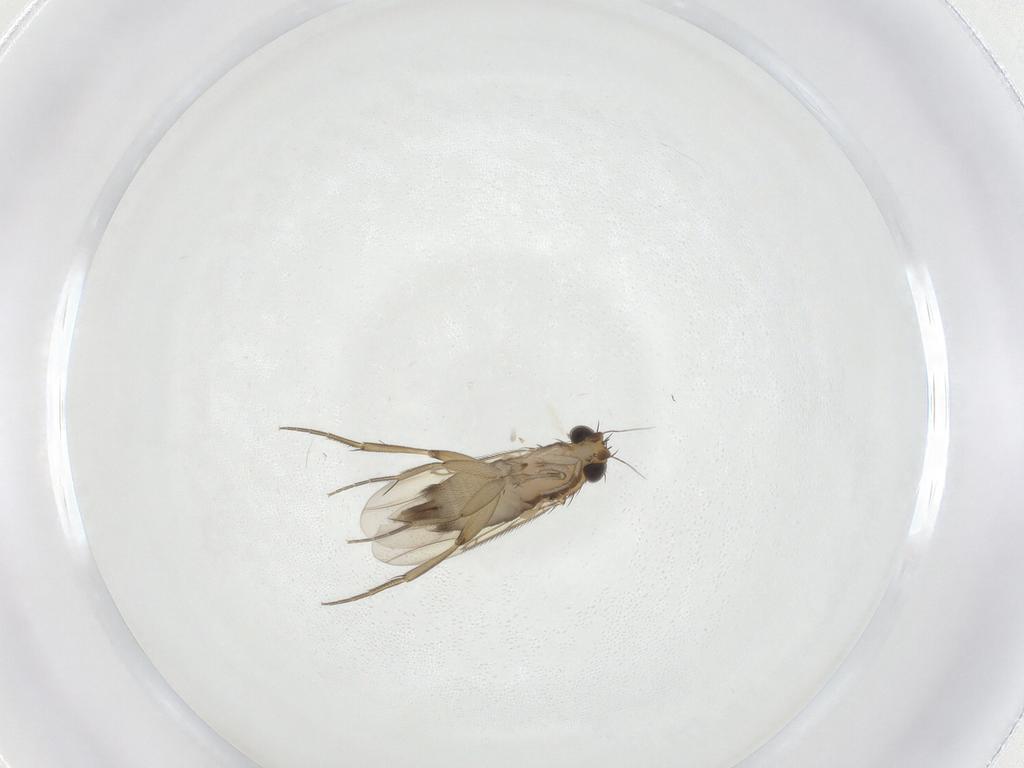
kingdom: Animalia
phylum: Arthropoda
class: Insecta
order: Diptera
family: Phoridae
